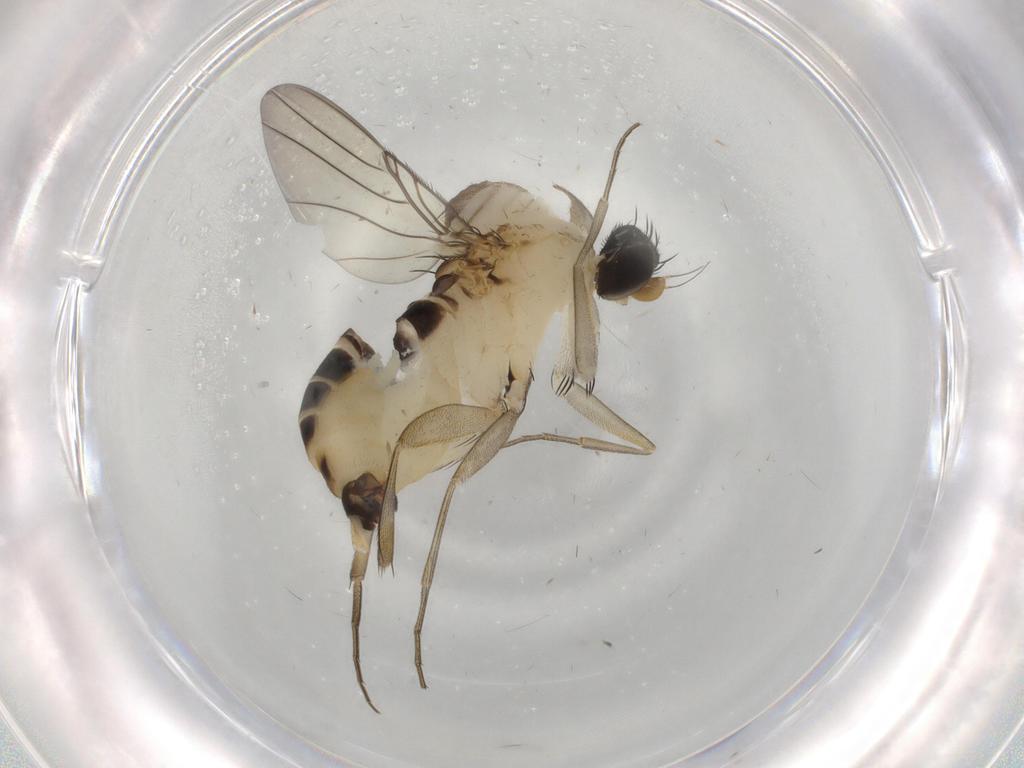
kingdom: Animalia
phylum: Arthropoda
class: Insecta
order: Diptera
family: Phoridae
